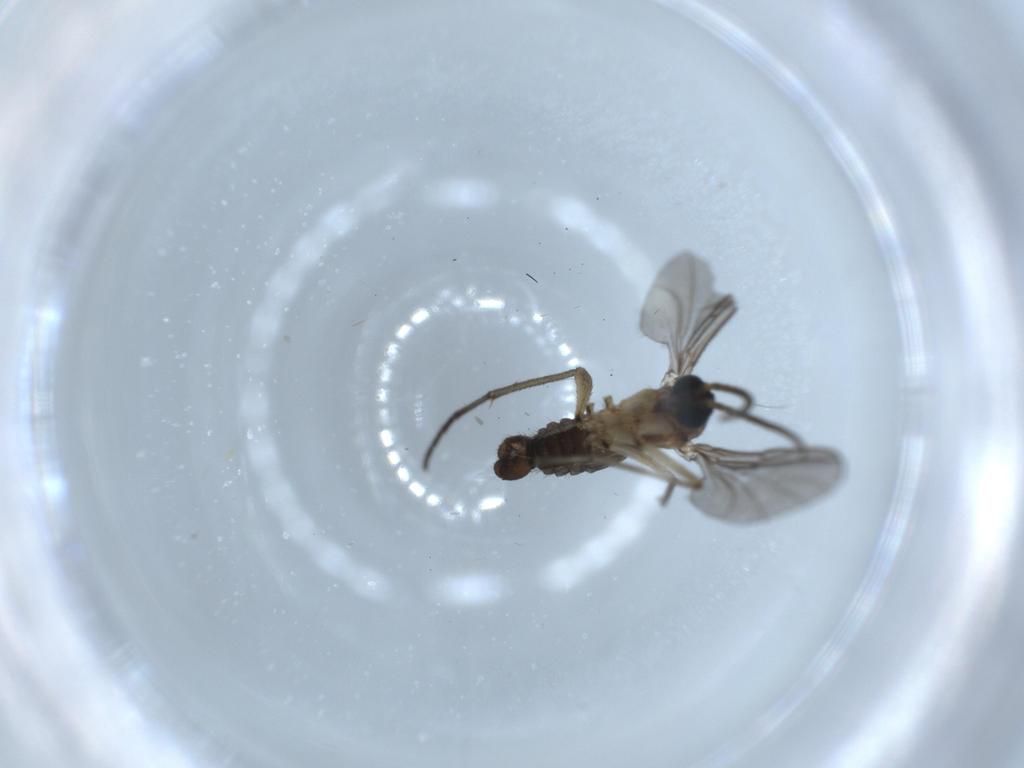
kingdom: Animalia
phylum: Arthropoda
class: Insecta
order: Diptera
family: Sciaridae
